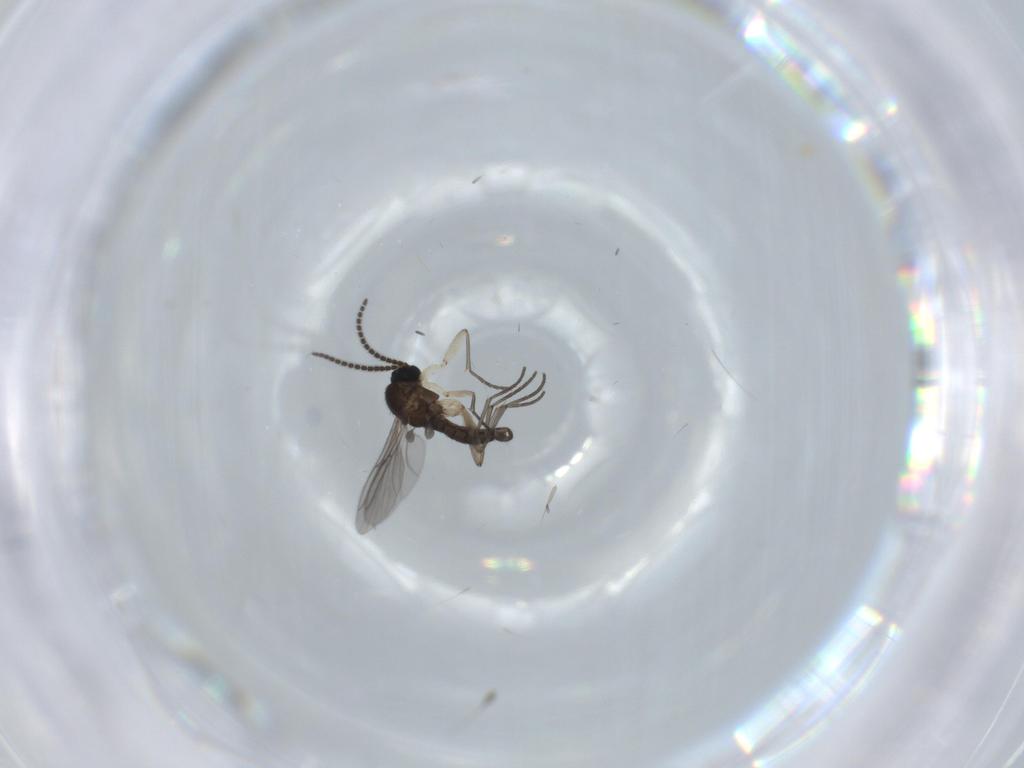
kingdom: Animalia
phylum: Arthropoda
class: Insecta
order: Diptera
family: Sciaridae
